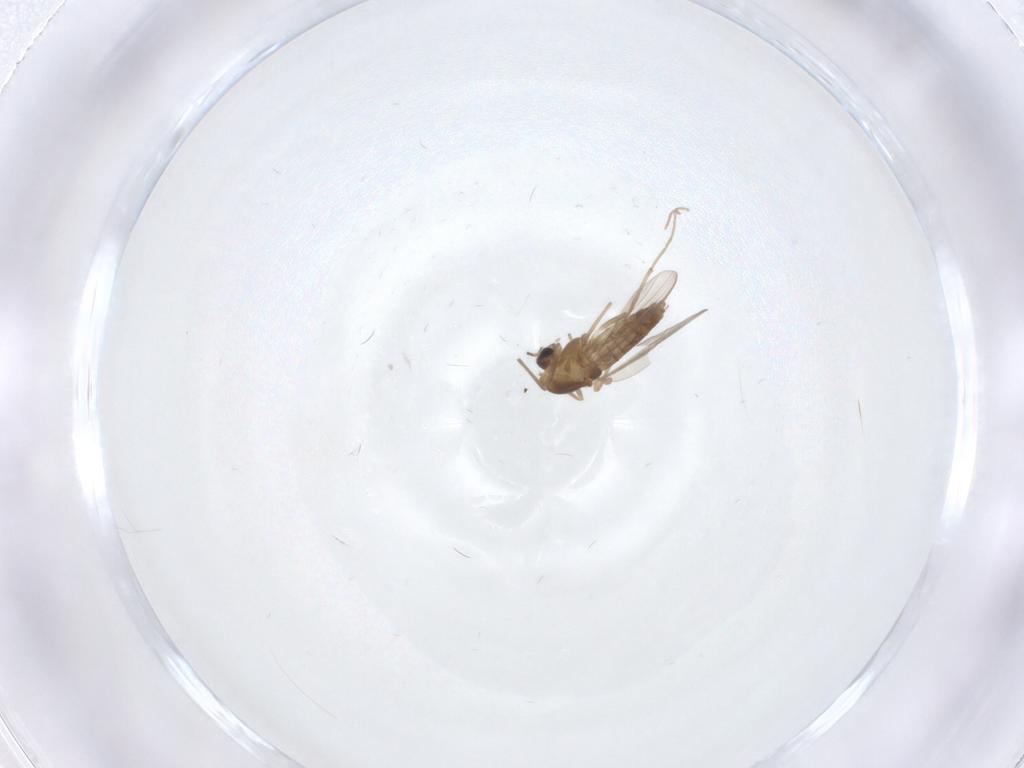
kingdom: Animalia
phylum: Arthropoda
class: Insecta
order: Diptera
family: Chironomidae
